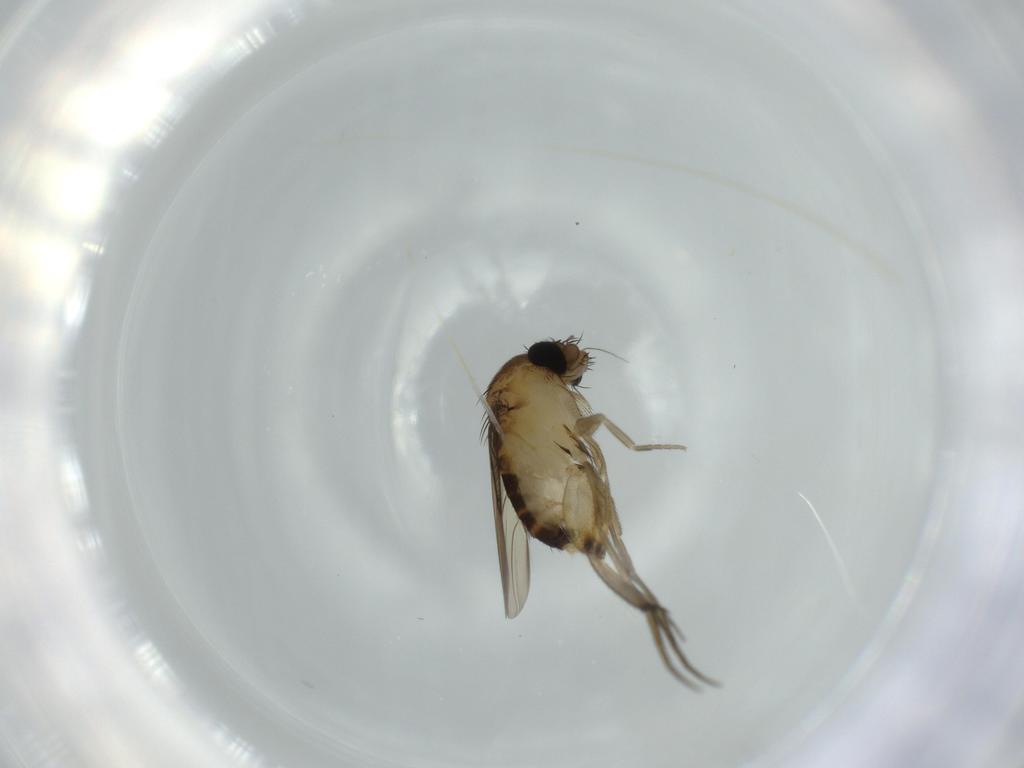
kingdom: Animalia
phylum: Arthropoda
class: Insecta
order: Diptera
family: Phoridae
